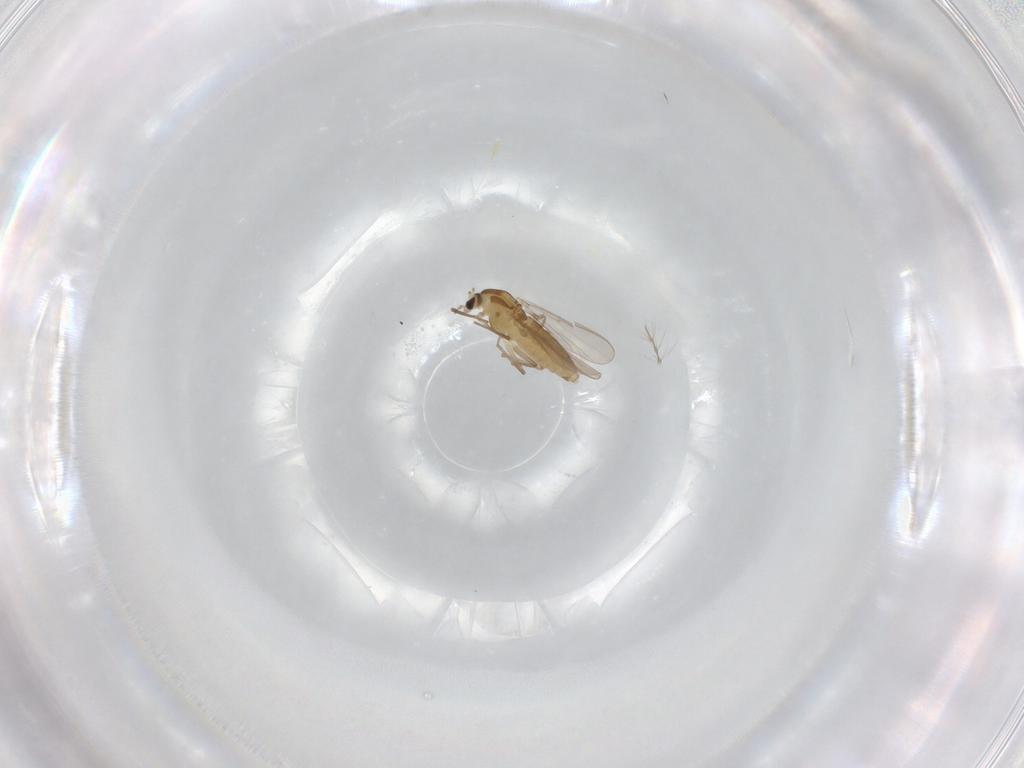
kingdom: Animalia
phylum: Arthropoda
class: Insecta
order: Diptera
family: Chironomidae
